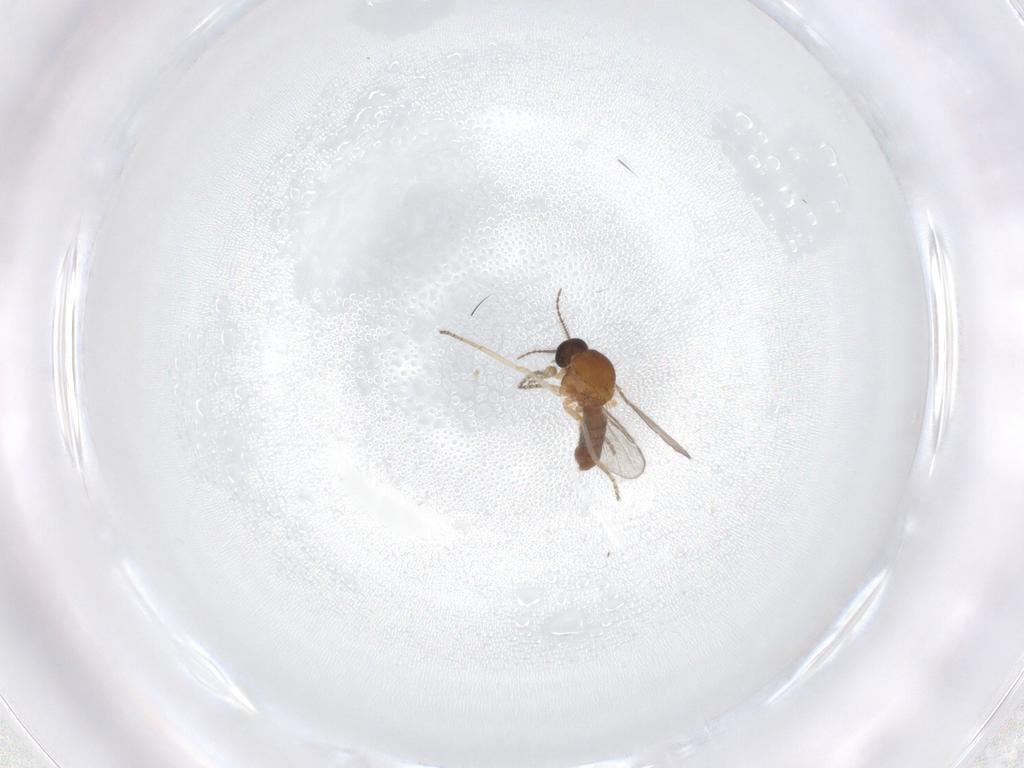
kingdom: Animalia
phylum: Arthropoda
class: Insecta
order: Diptera
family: Ceratopogonidae
